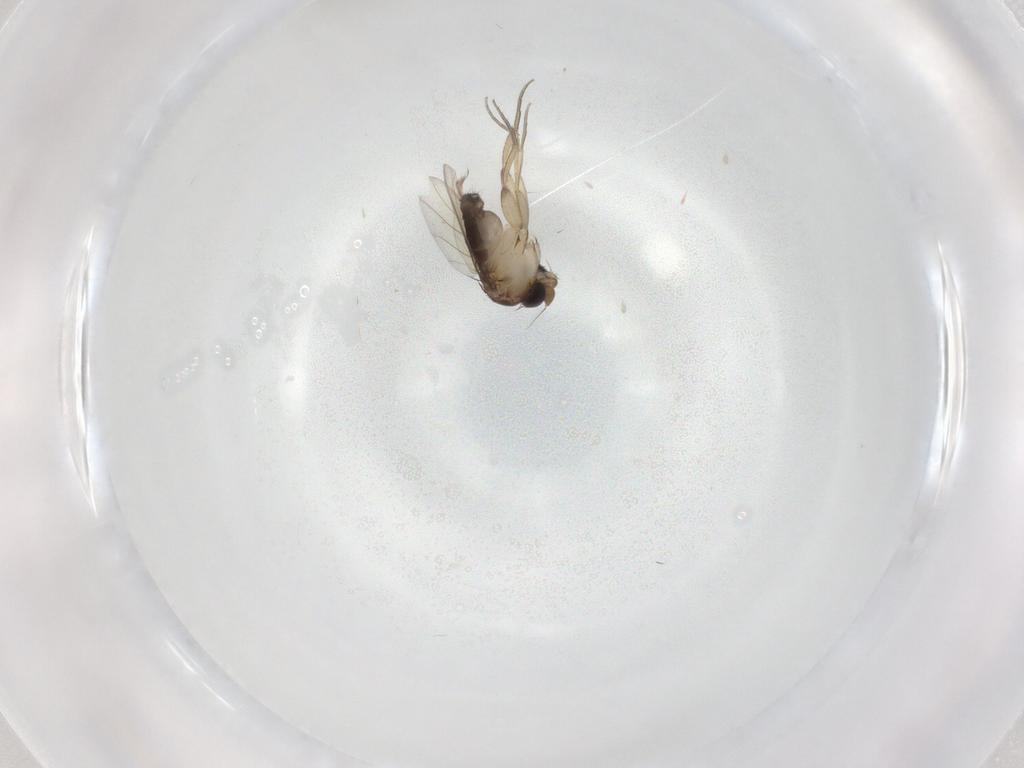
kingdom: Animalia
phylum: Arthropoda
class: Insecta
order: Diptera
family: Phoridae
